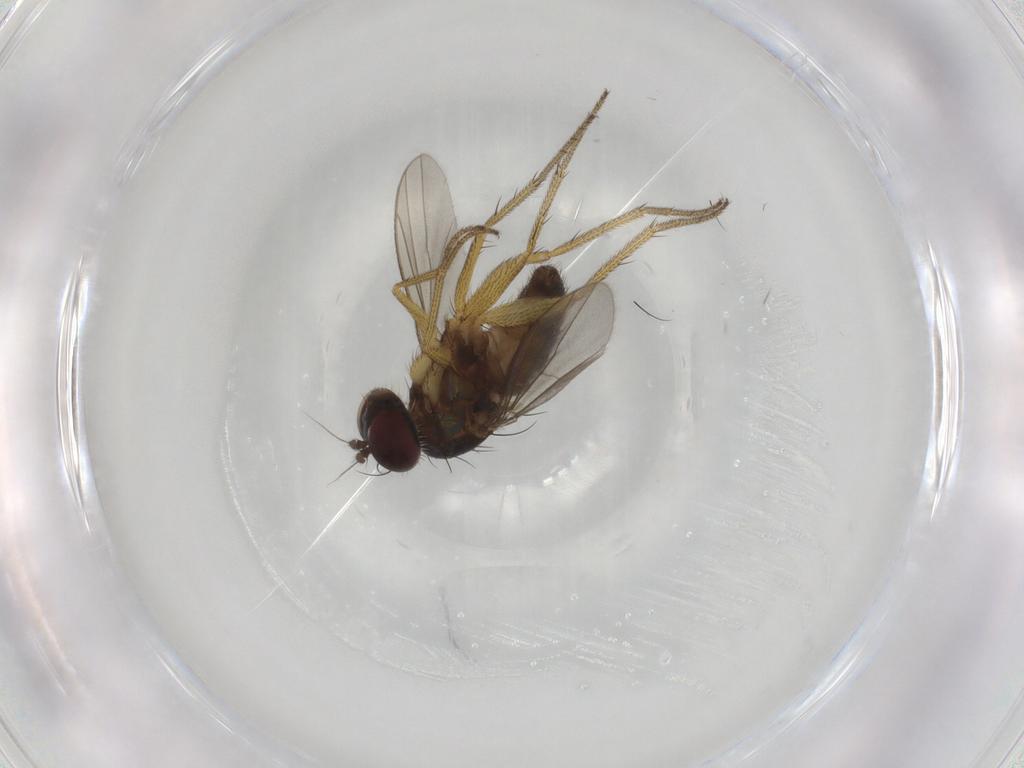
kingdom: Animalia
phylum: Arthropoda
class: Insecta
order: Diptera
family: Dolichopodidae
